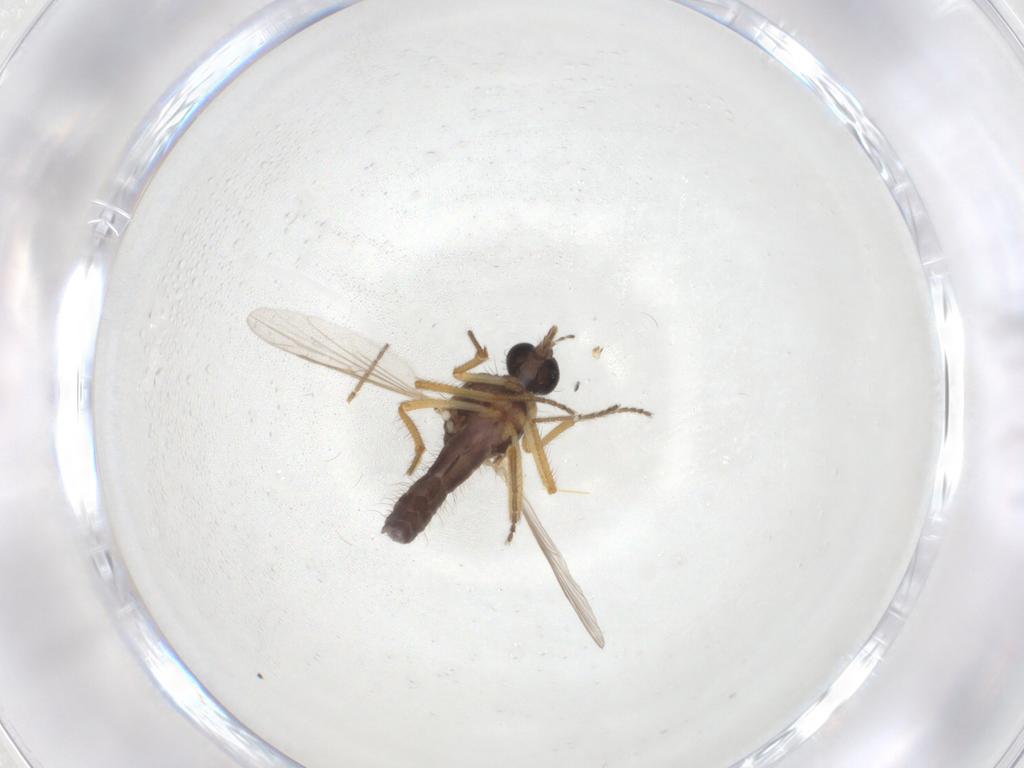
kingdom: Animalia
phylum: Arthropoda
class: Insecta
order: Diptera
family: Ceratopogonidae
